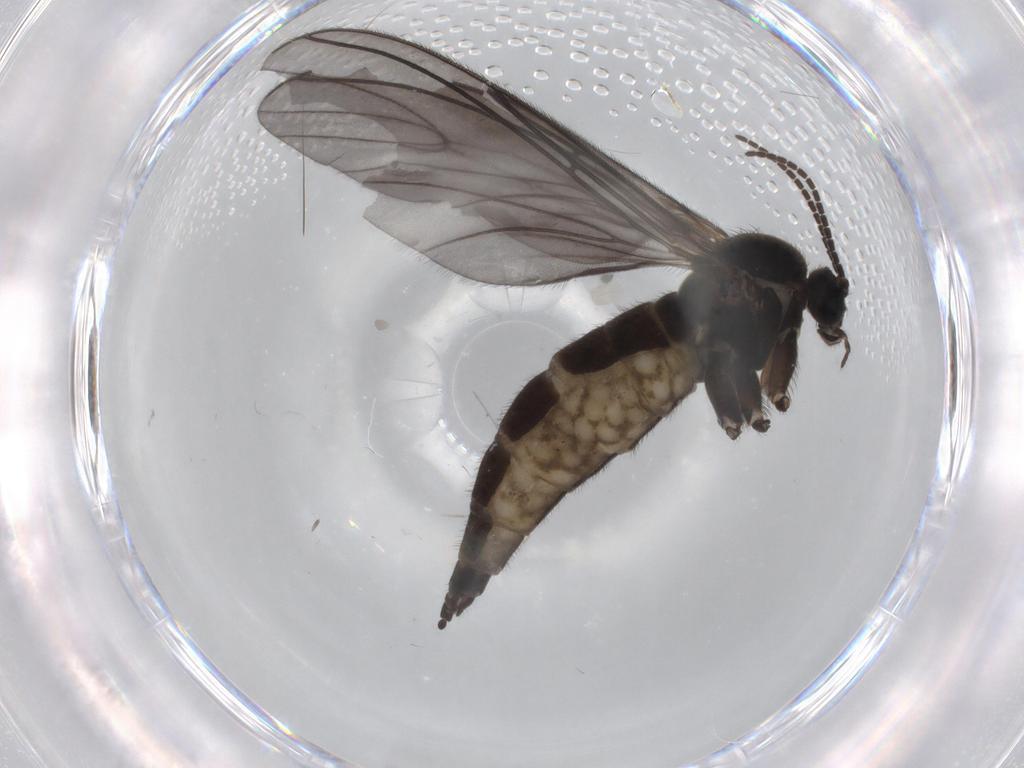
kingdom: Animalia
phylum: Arthropoda
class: Insecta
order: Diptera
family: Sciaridae
